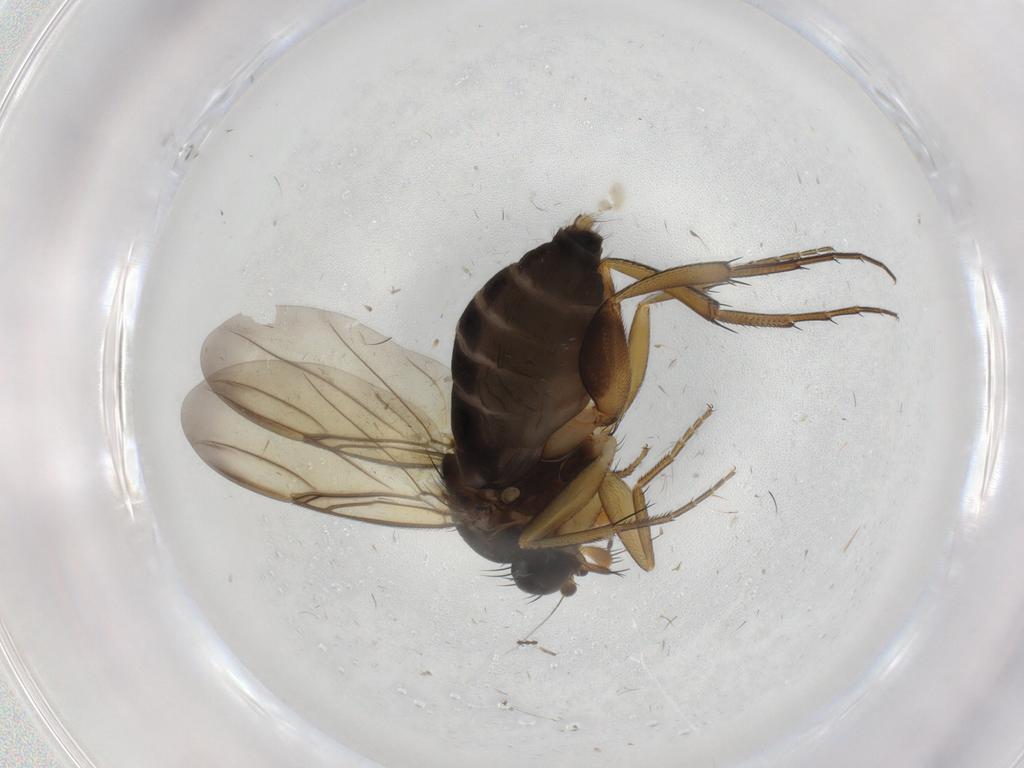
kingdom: Animalia
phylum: Arthropoda
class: Insecta
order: Diptera
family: Sciaridae
